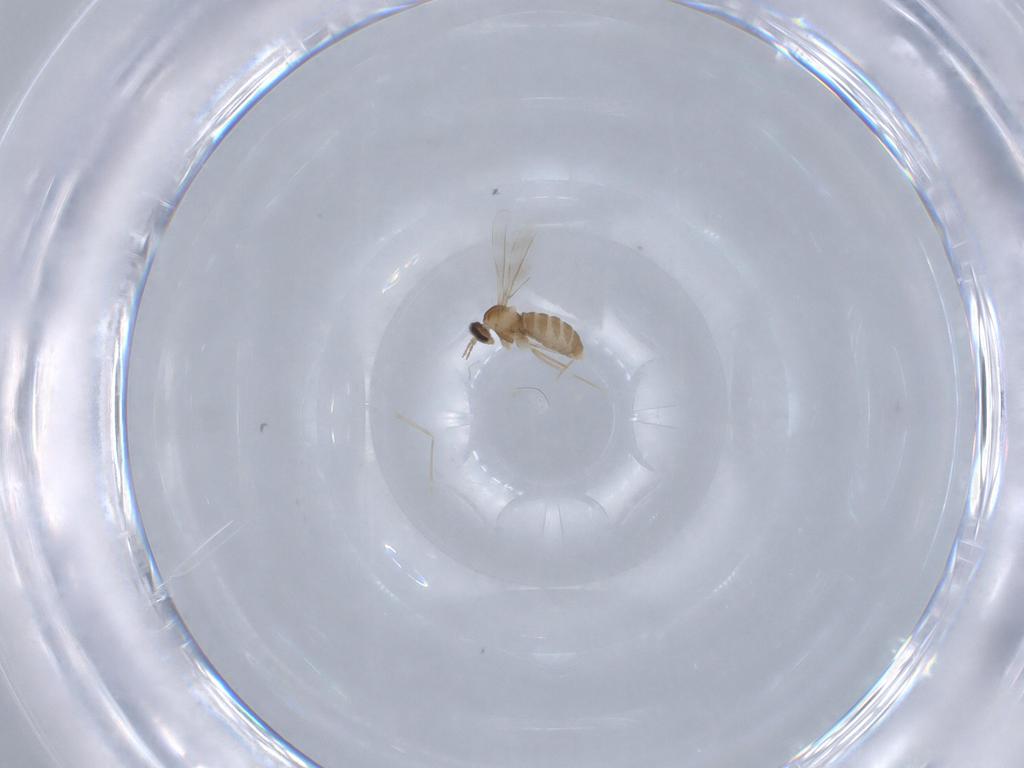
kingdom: Animalia
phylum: Arthropoda
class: Insecta
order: Diptera
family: Cecidomyiidae
